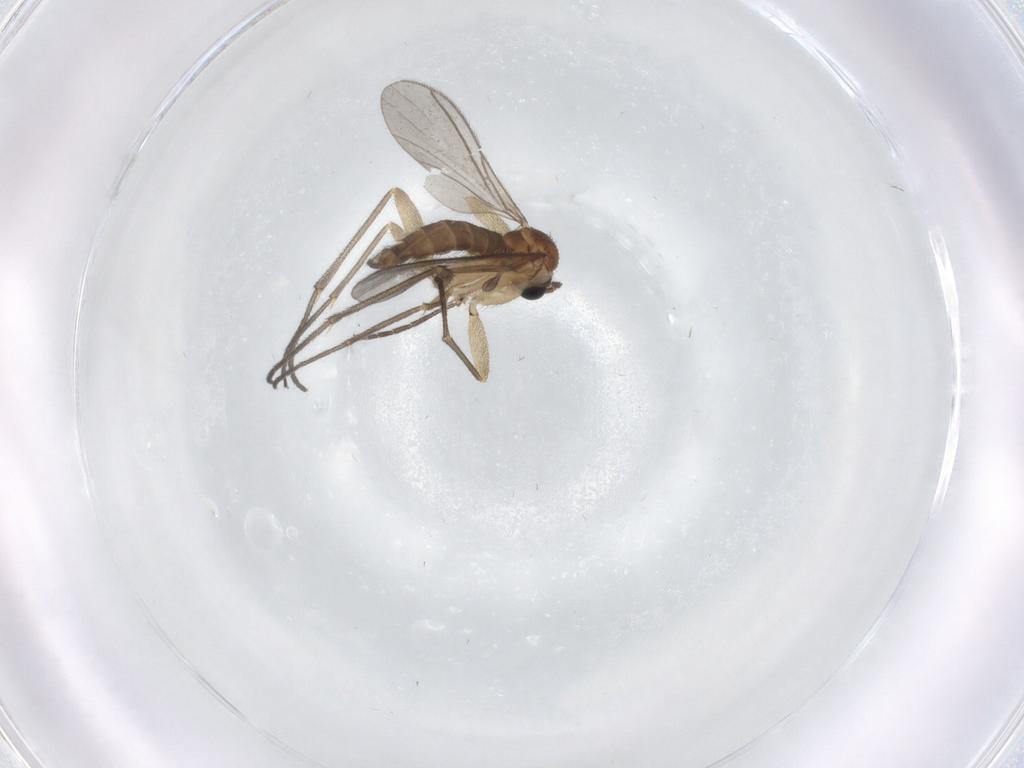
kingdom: Animalia
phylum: Arthropoda
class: Insecta
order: Diptera
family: Sciaridae
